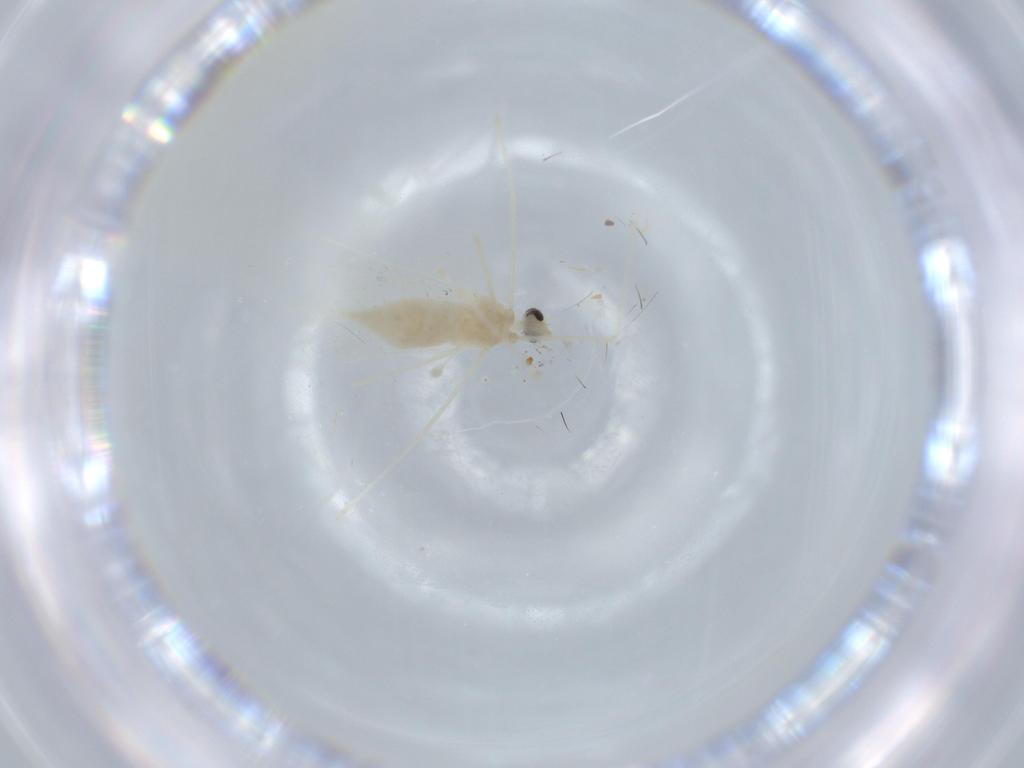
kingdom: Animalia
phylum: Arthropoda
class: Insecta
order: Diptera
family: Cecidomyiidae
